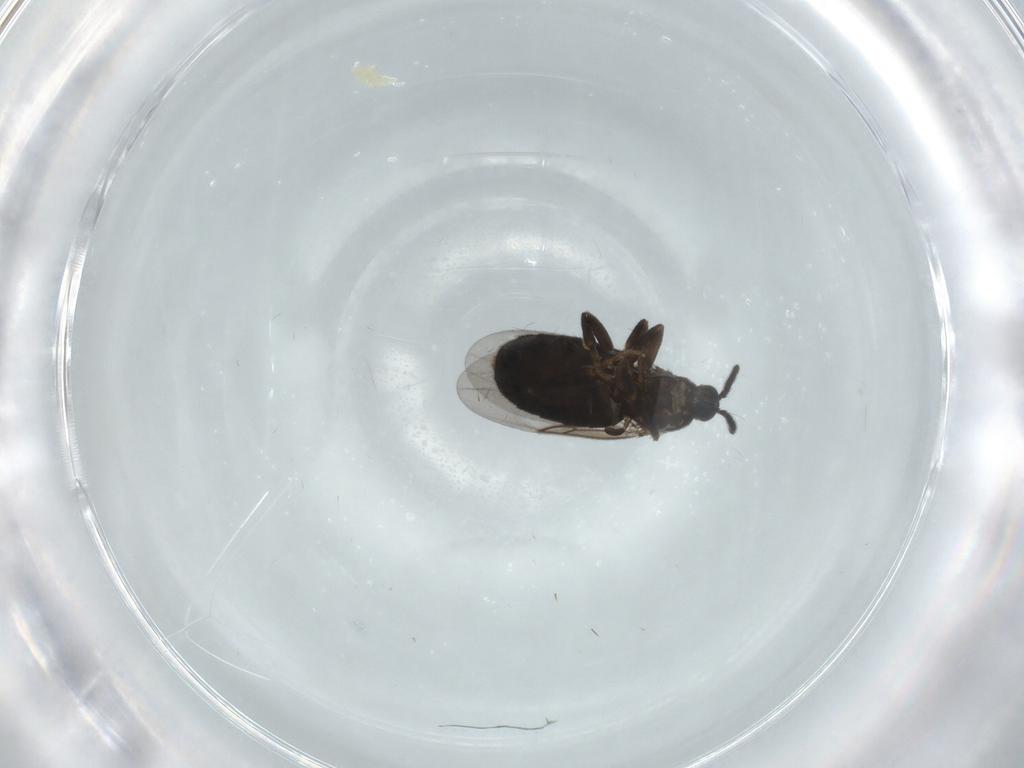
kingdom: Animalia
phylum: Arthropoda
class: Insecta
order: Diptera
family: Scatopsidae
